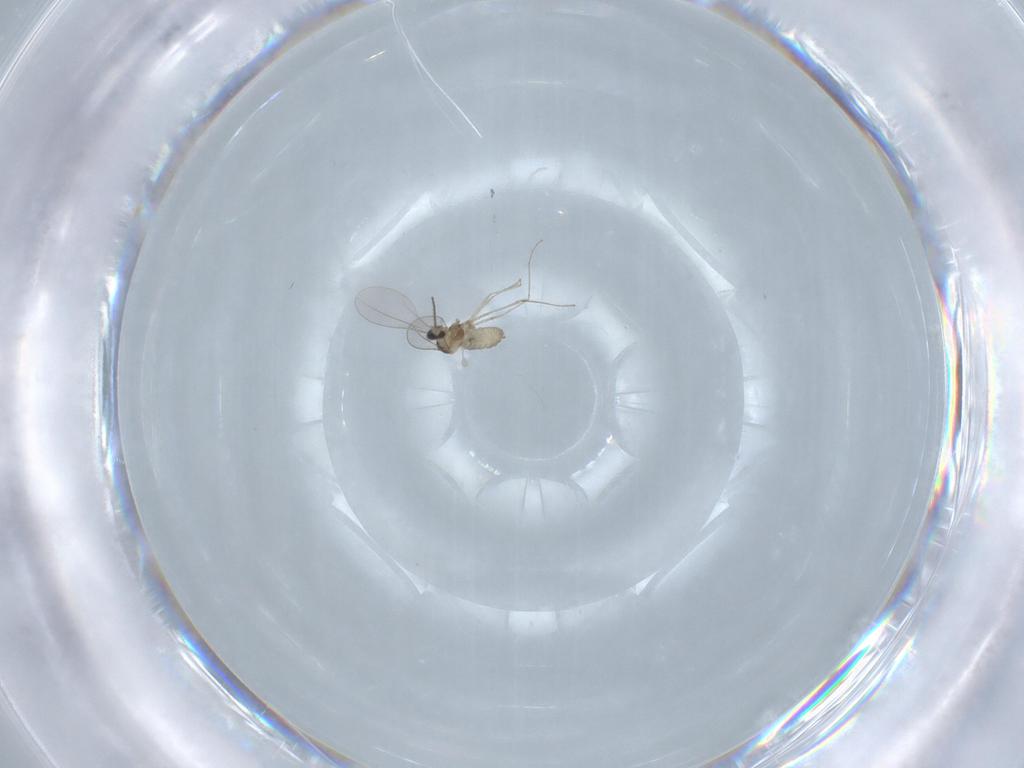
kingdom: Animalia
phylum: Arthropoda
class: Insecta
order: Diptera
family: Cecidomyiidae
